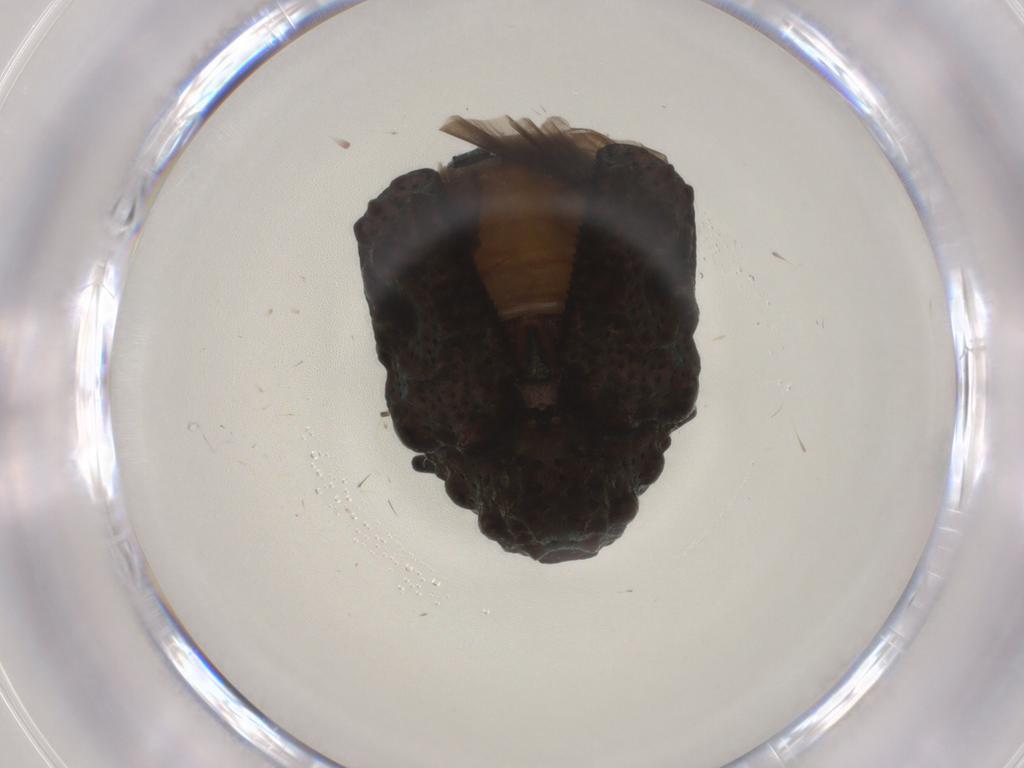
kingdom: Animalia
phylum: Arthropoda
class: Insecta
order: Coleoptera
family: Chrysomelidae
